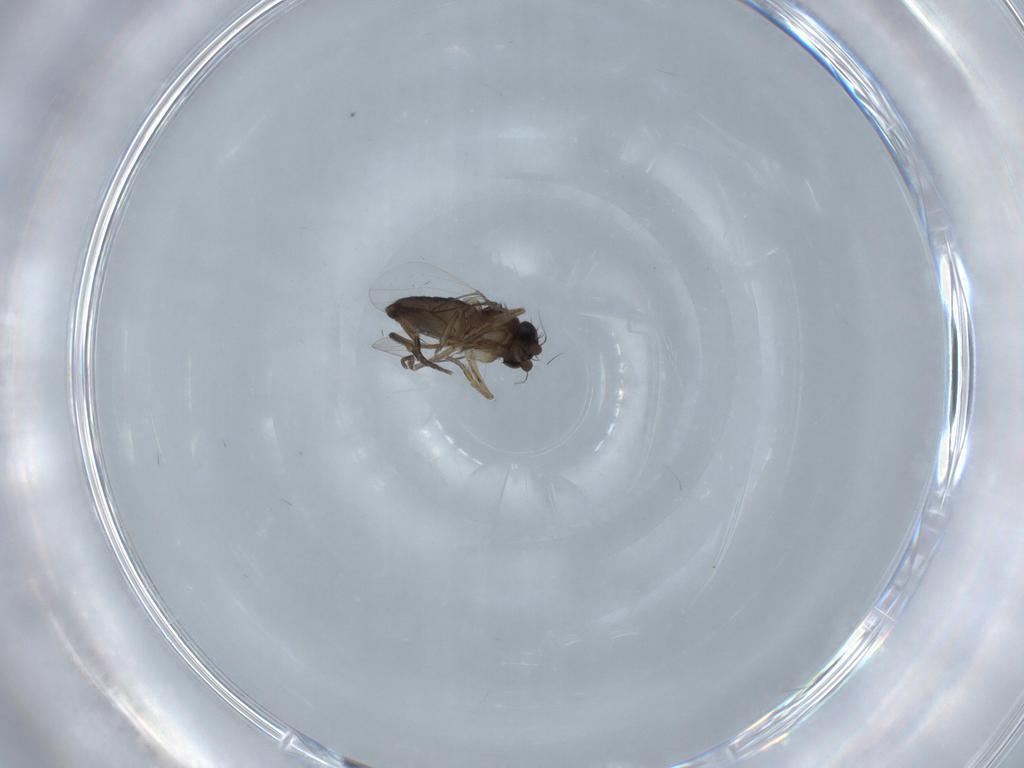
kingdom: Animalia
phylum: Arthropoda
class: Insecta
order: Diptera
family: Phoridae
